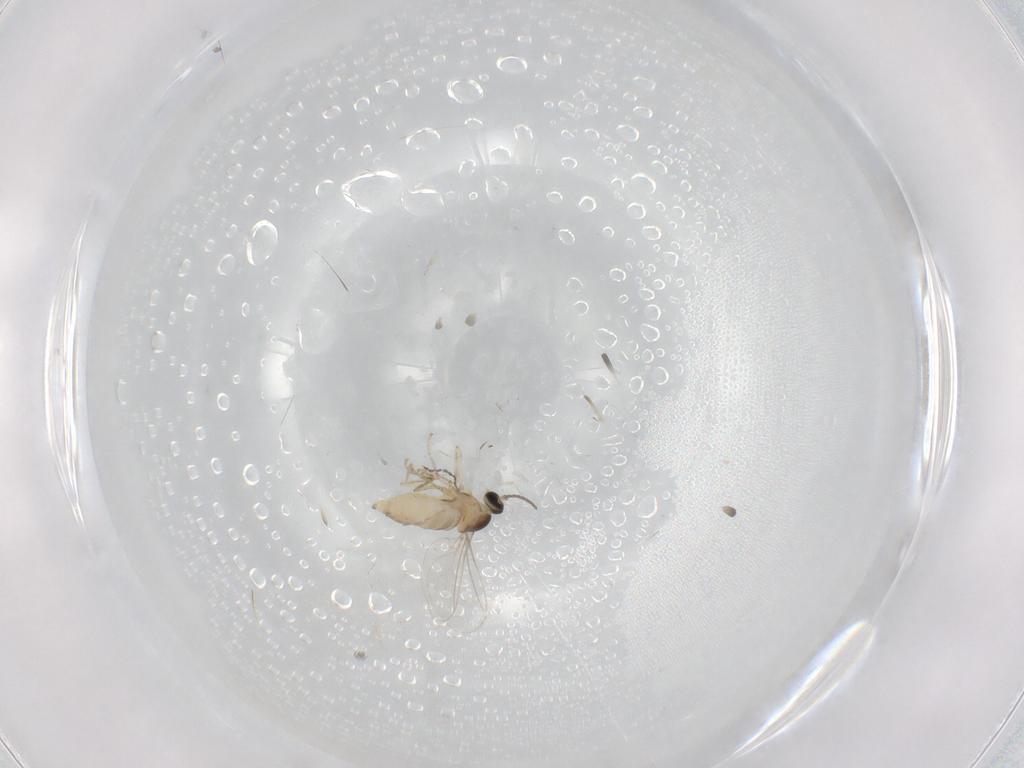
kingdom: Animalia
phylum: Arthropoda
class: Insecta
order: Diptera
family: Cecidomyiidae
